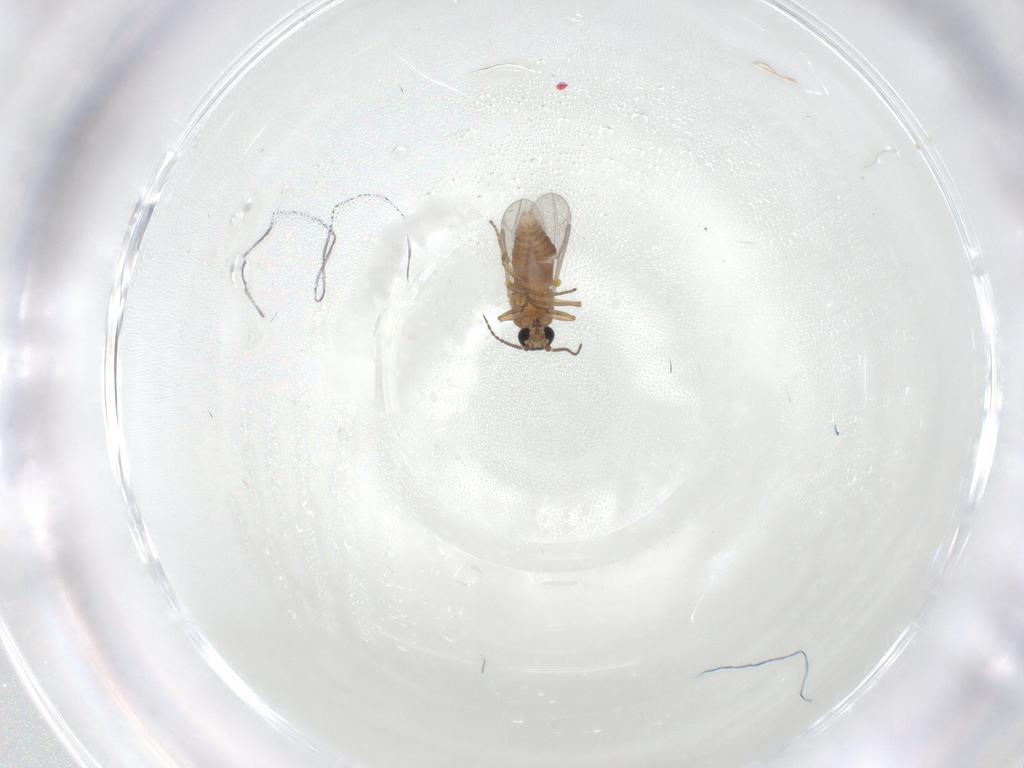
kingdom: Animalia
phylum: Arthropoda
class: Insecta
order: Diptera
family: Ceratopogonidae
